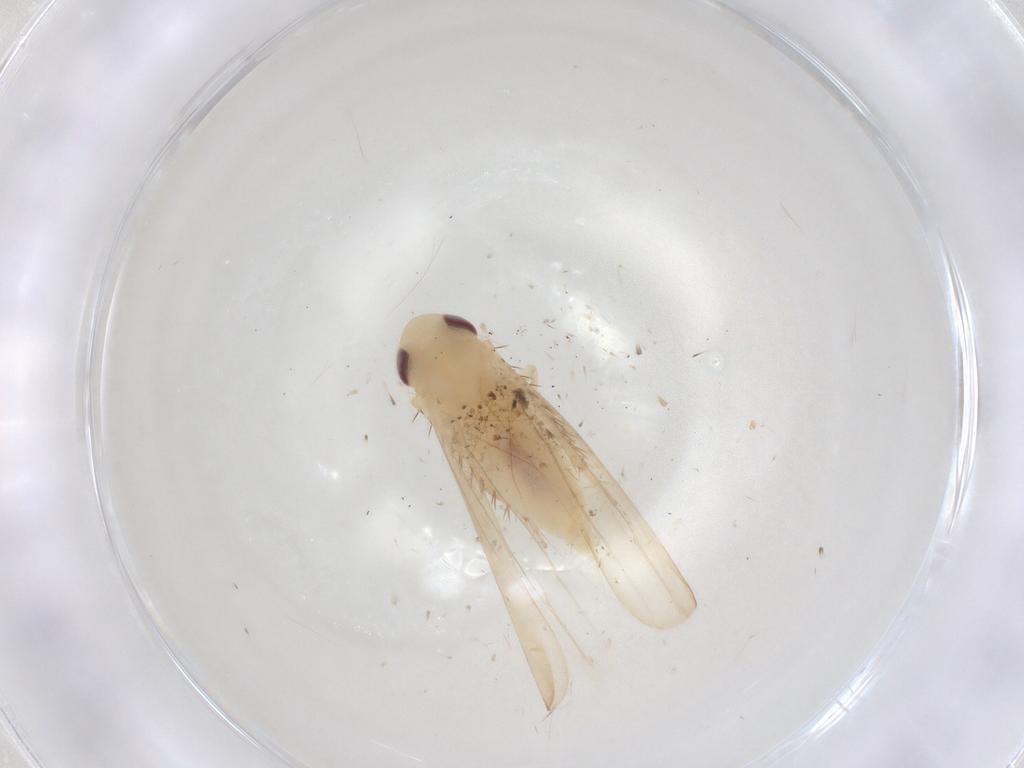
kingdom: Animalia
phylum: Arthropoda
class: Insecta
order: Hemiptera
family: Cicadellidae
